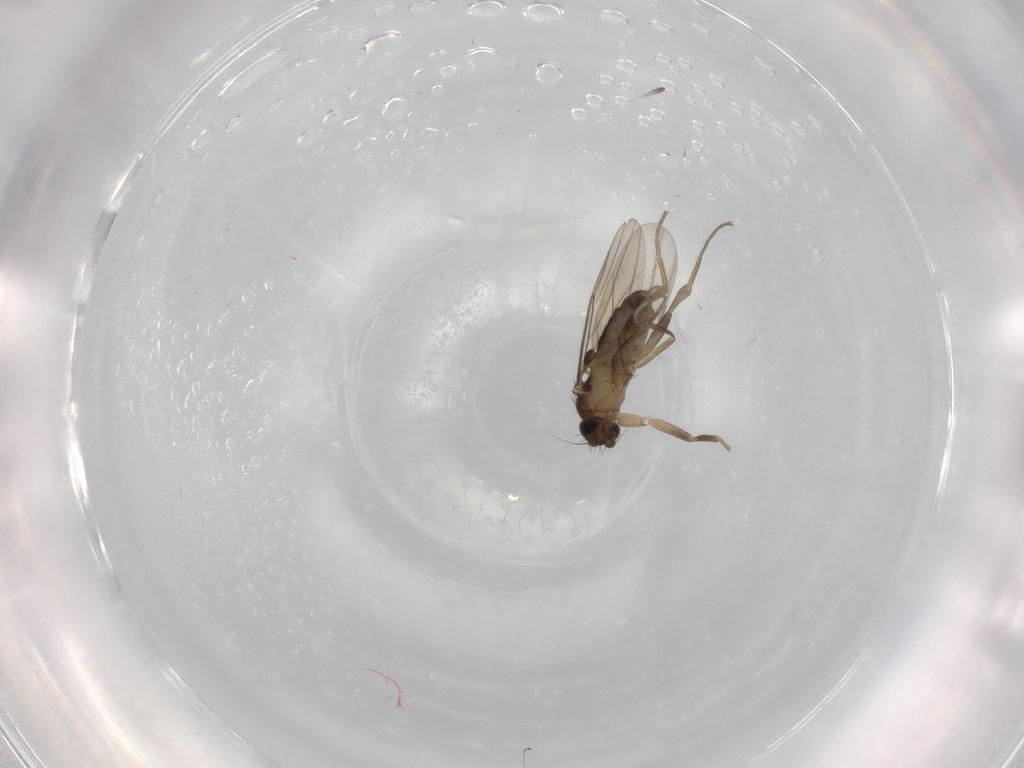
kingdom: Animalia
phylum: Arthropoda
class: Insecta
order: Diptera
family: Phoridae
